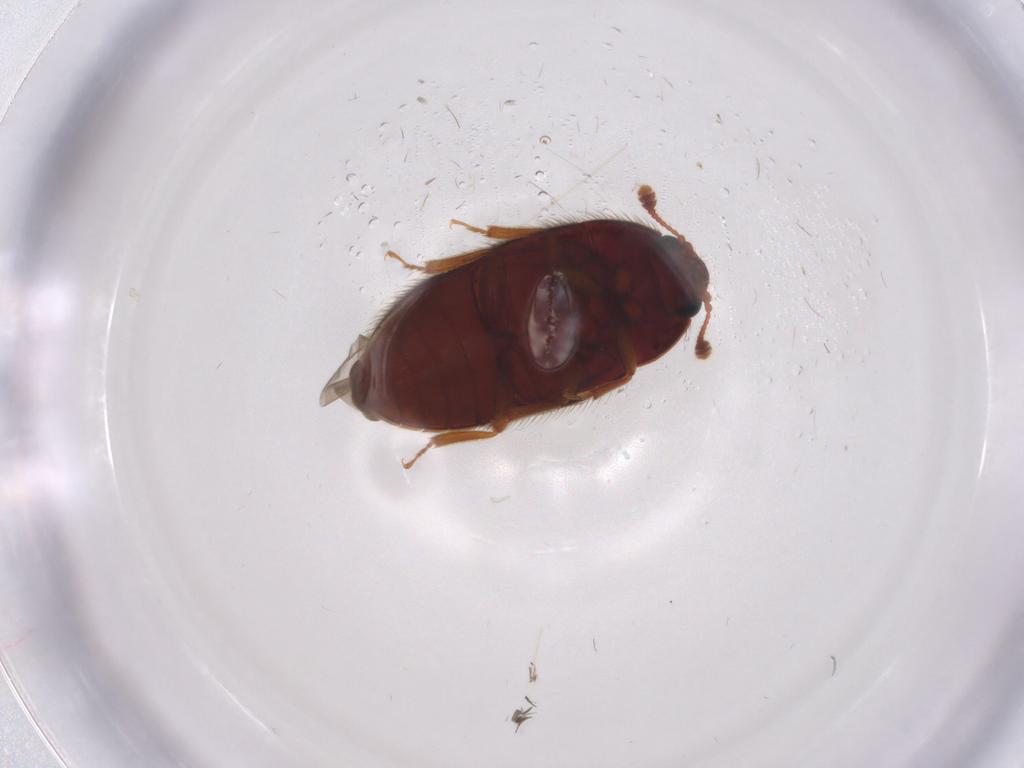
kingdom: Animalia
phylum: Arthropoda
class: Insecta
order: Coleoptera
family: Biphyllidae
